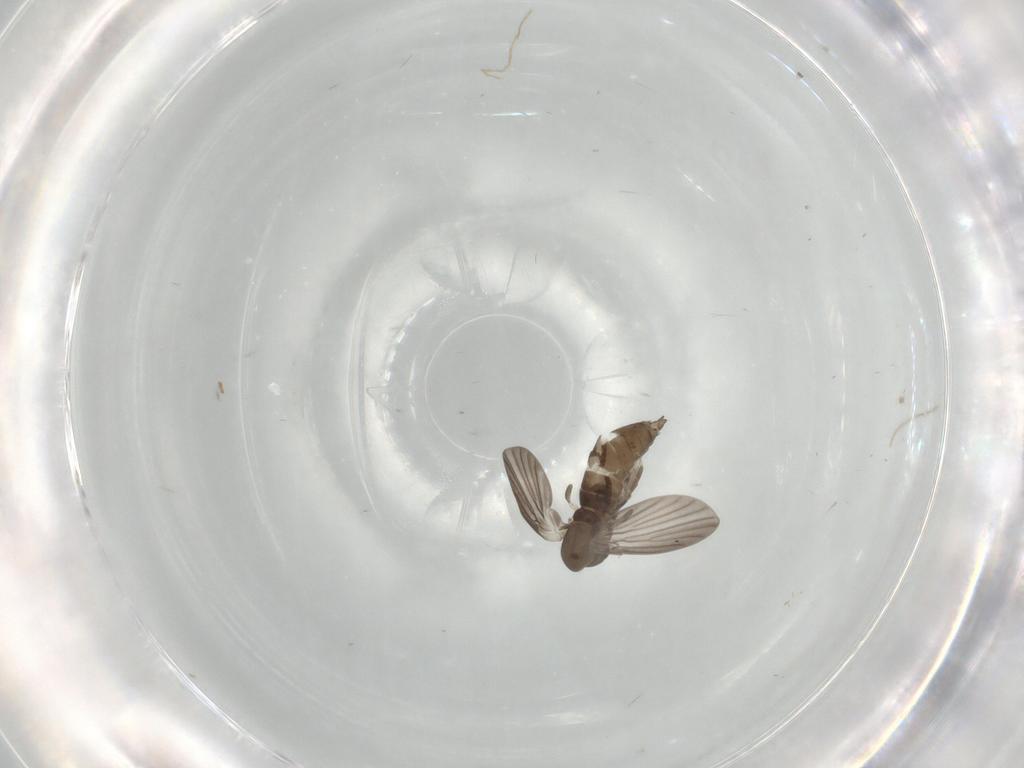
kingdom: Animalia
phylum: Arthropoda
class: Insecta
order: Diptera
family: Psychodidae
